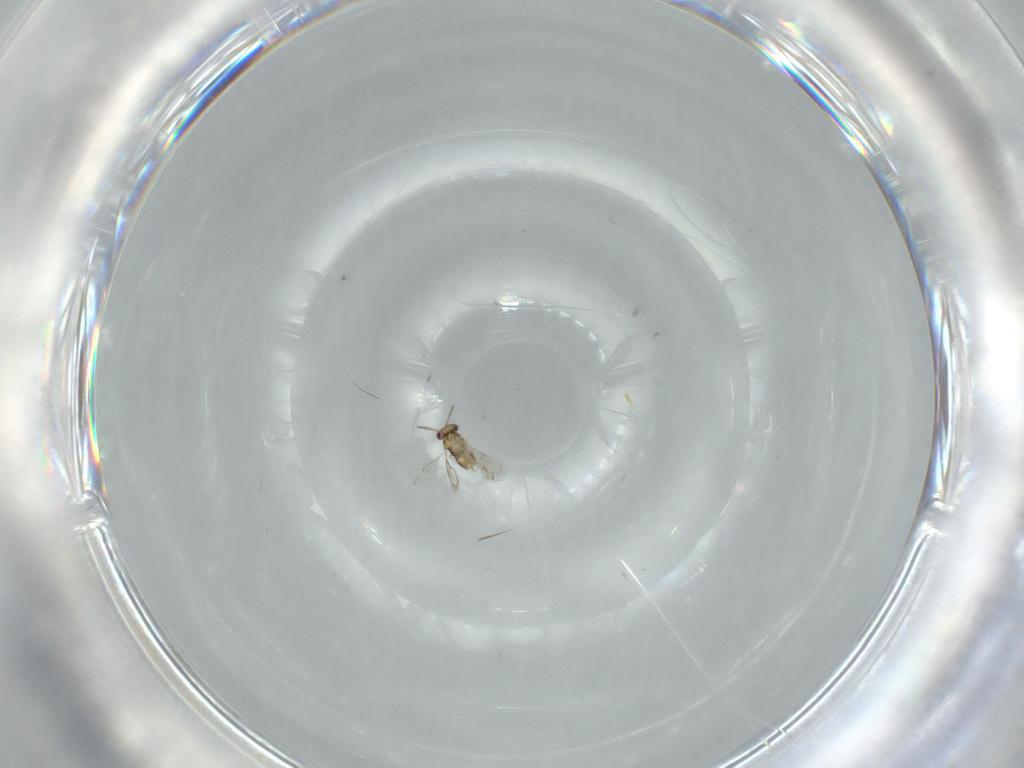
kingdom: Animalia
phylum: Arthropoda
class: Insecta
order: Hymenoptera
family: Aphelinidae
